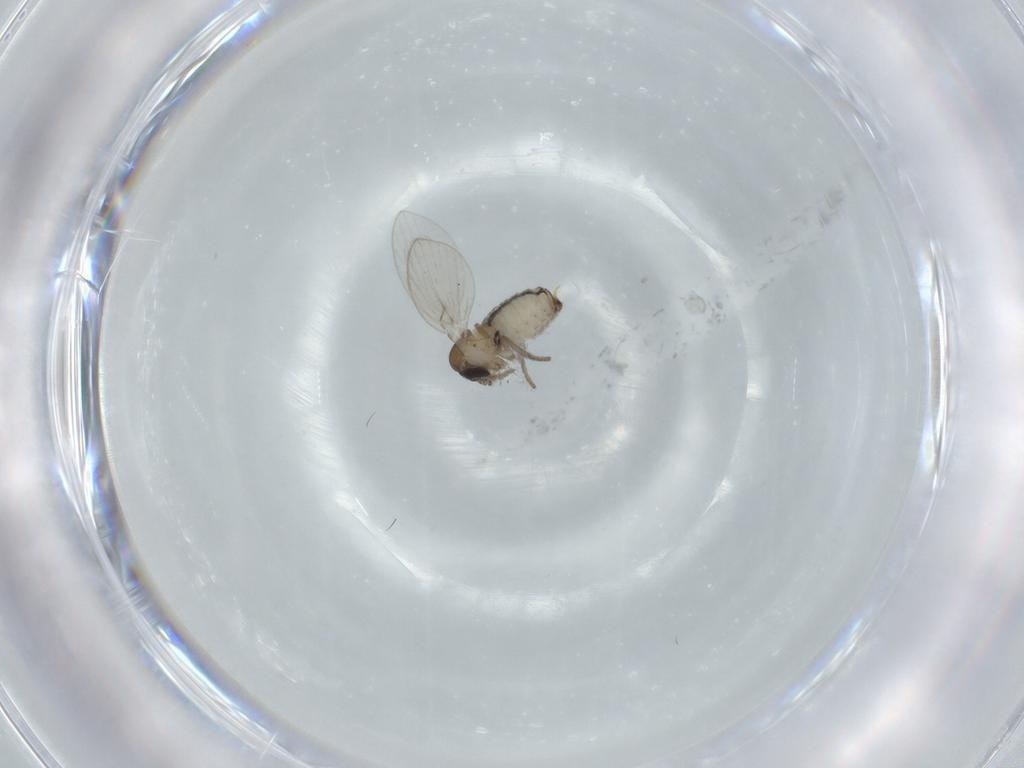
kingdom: Animalia
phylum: Arthropoda
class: Insecta
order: Diptera
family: Psychodidae
